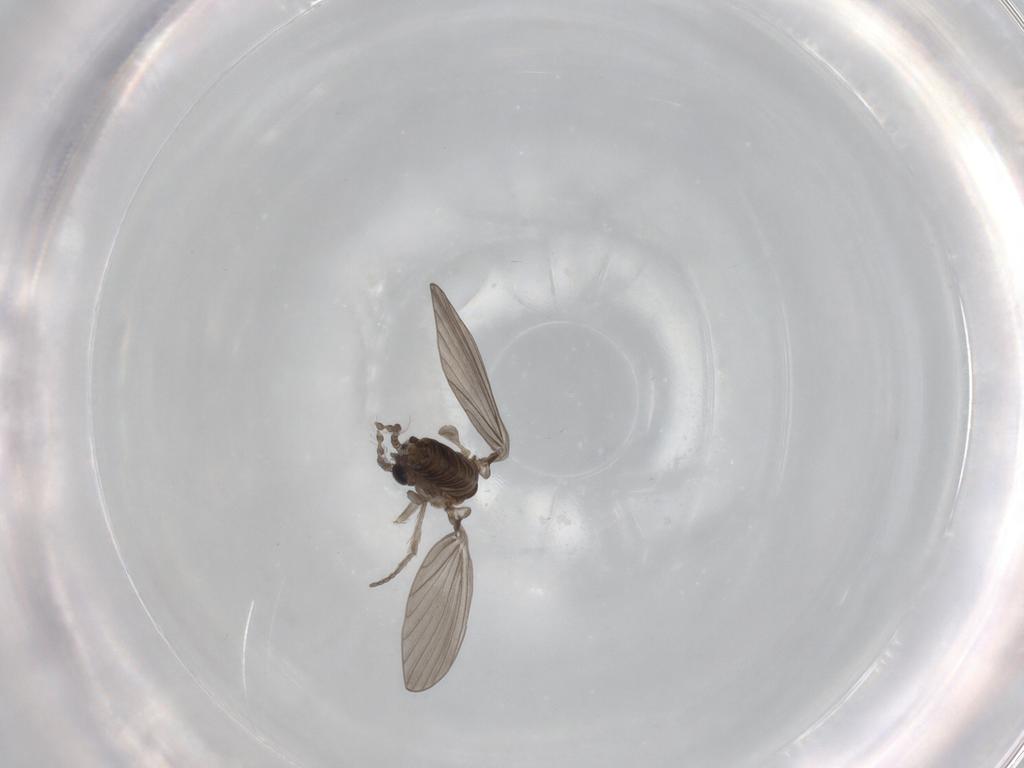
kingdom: Animalia
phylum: Arthropoda
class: Insecta
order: Diptera
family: Psychodidae
